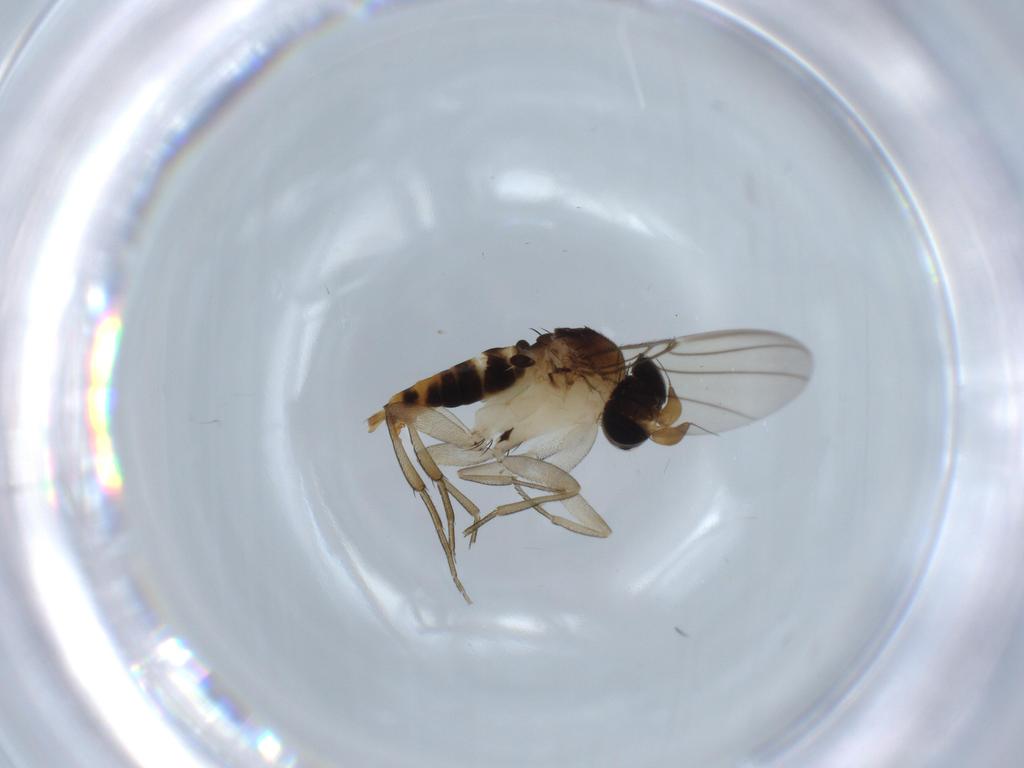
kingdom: Animalia
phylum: Arthropoda
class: Insecta
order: Diptera
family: Phoridae
